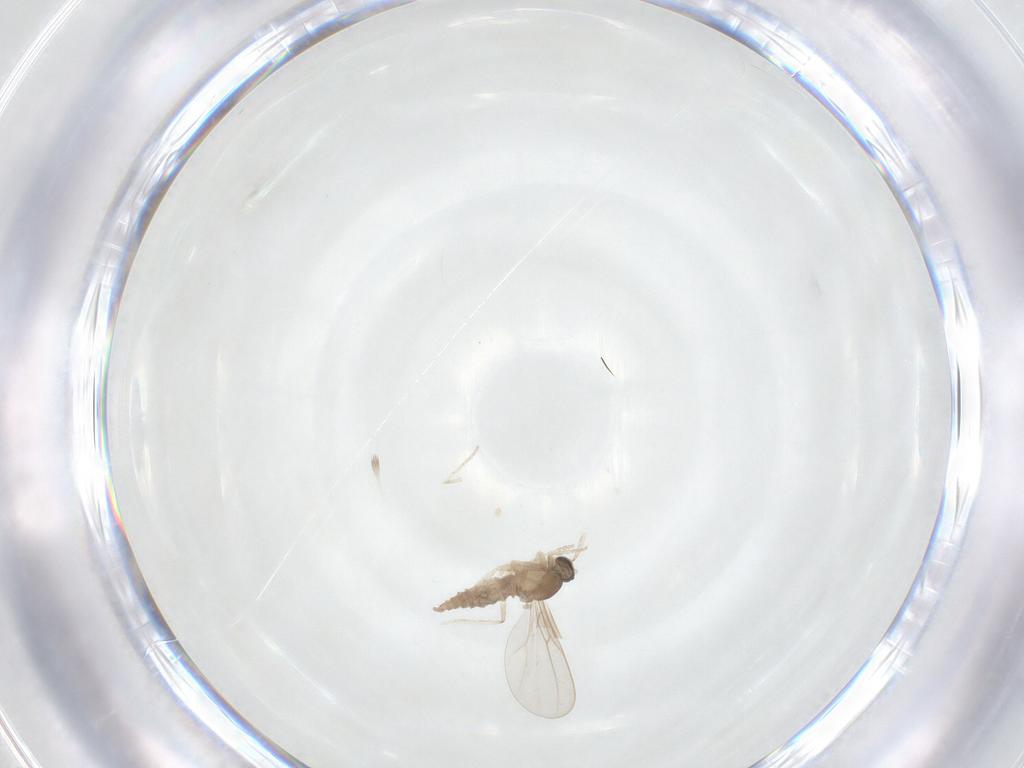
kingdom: Animalia
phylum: Arthropoda
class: Insecta
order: Diptera
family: Cecidomyiidae
